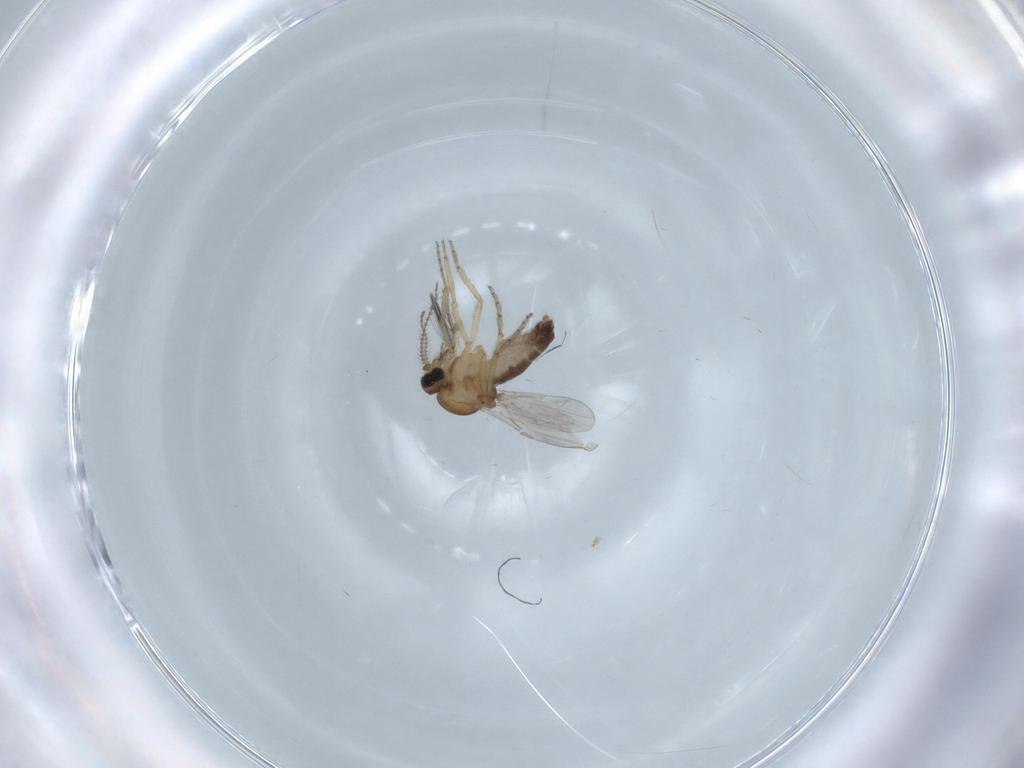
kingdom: Animalia
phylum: Arthropoda
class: Insecta
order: Diptera
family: Ceratopogonidae
